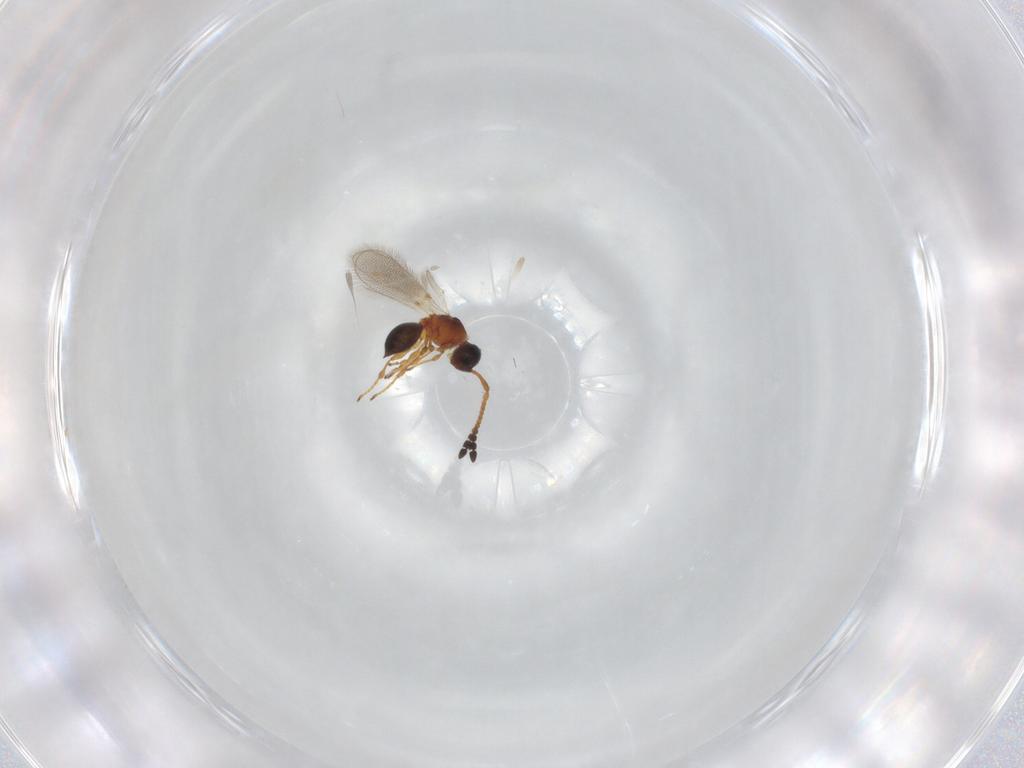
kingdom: Animalia
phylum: Arthropoda
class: Insecta
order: Hymenoptera
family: Diapriidae
